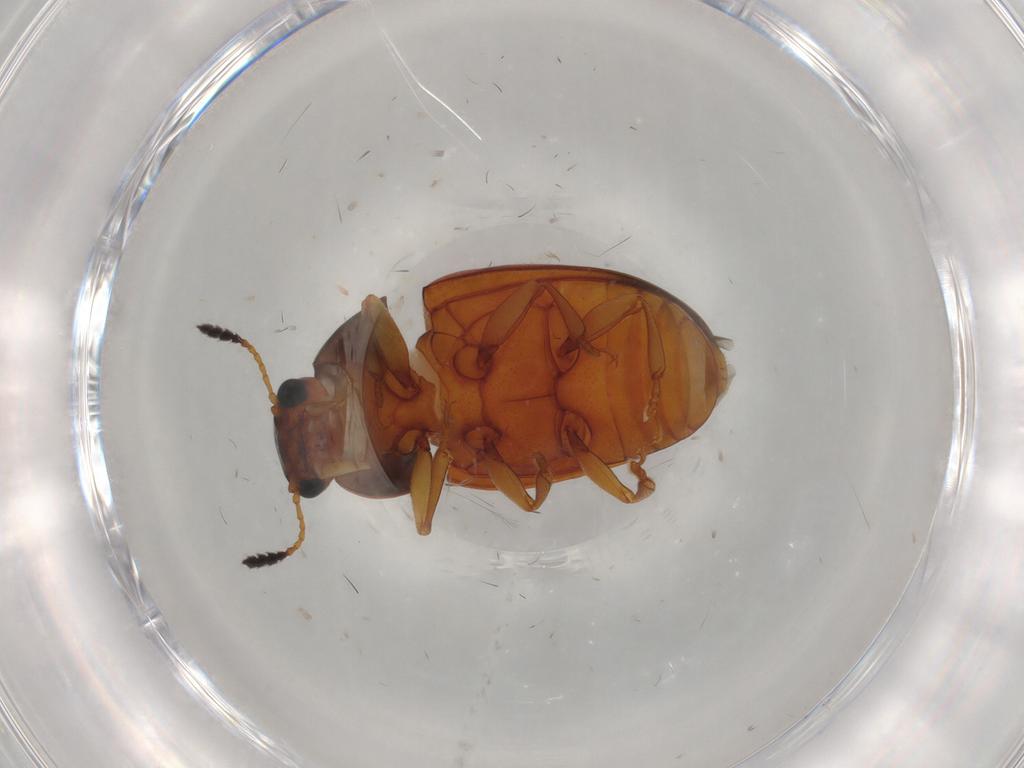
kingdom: Animalia
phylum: Arthropoda
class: Insecta
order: Coleoptera
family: Erotylidae
